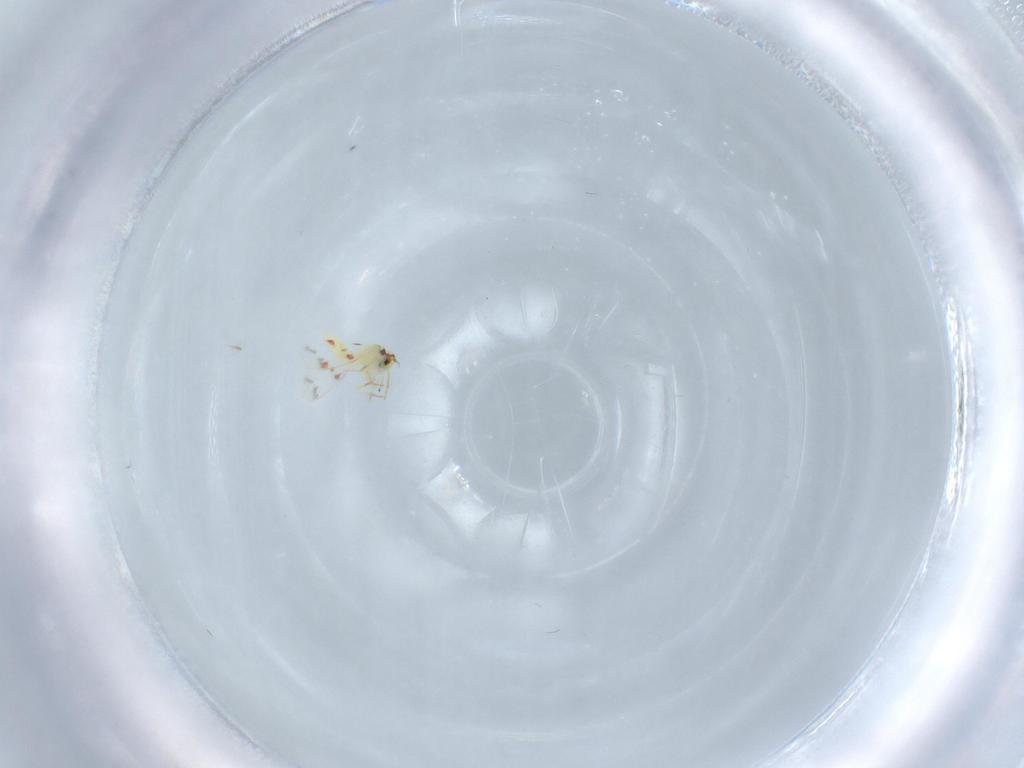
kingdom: Animalia
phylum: Arthropoda
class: Insecta
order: Hemiptera
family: Aleyrodidae
